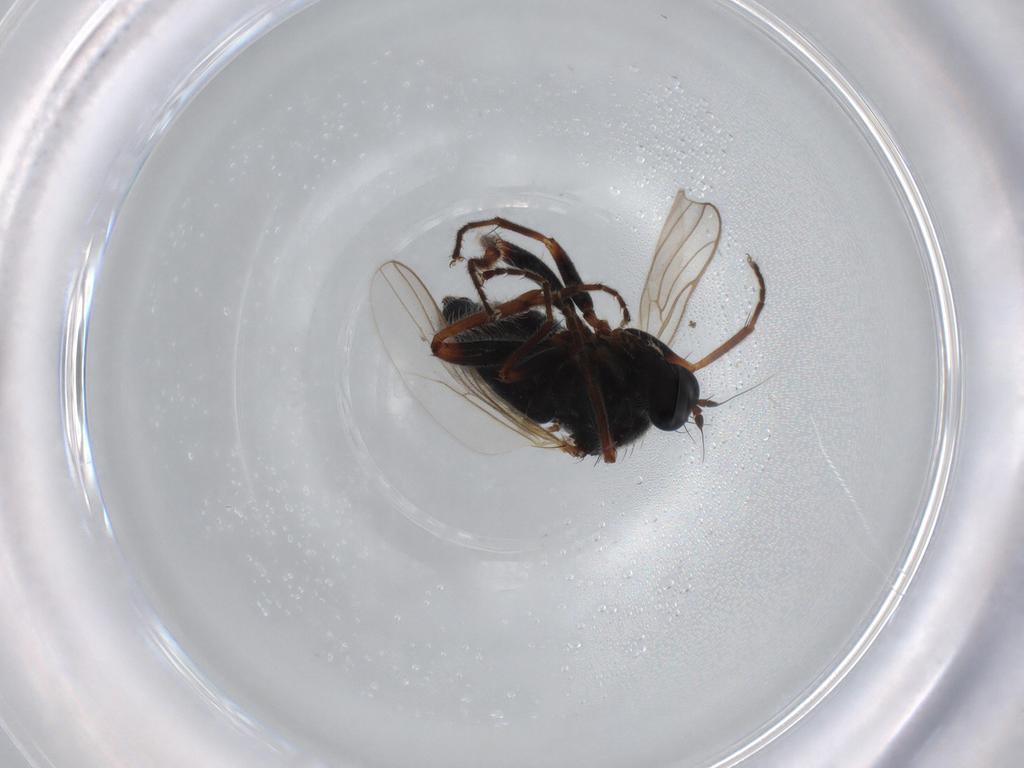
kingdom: Animalia
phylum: Arthropoda
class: Insecta
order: Diptera
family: Hybotidae
